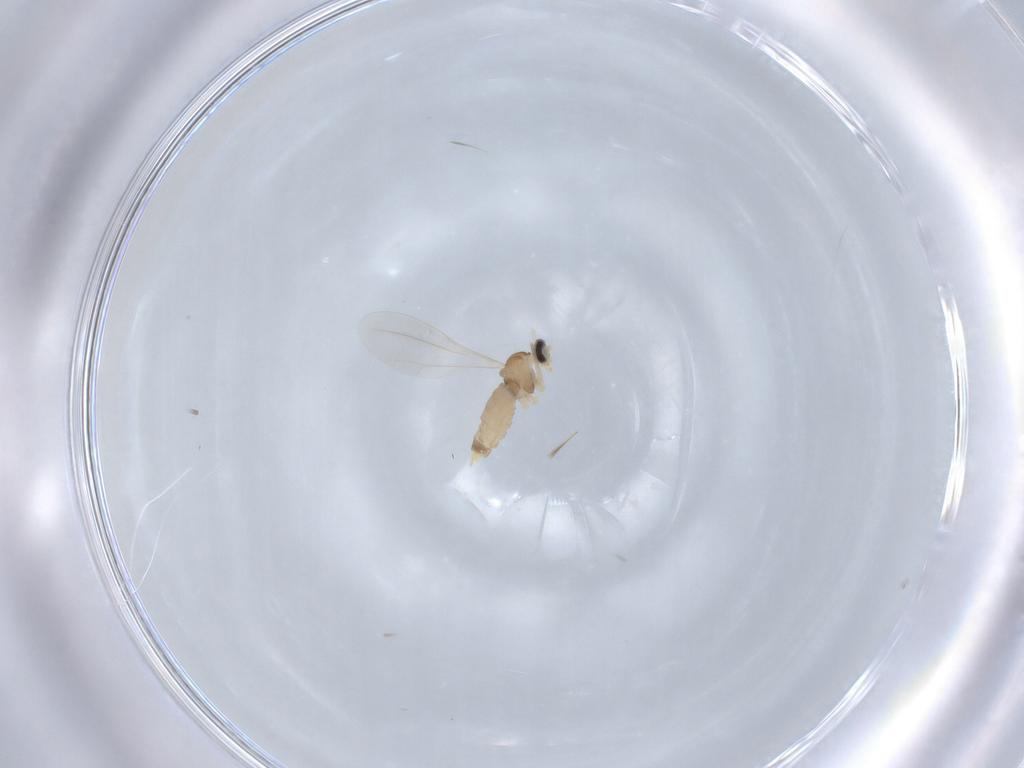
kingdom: Animalia
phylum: Arthropoda
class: Insecta
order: Diptera
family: Cecidomyiidae
